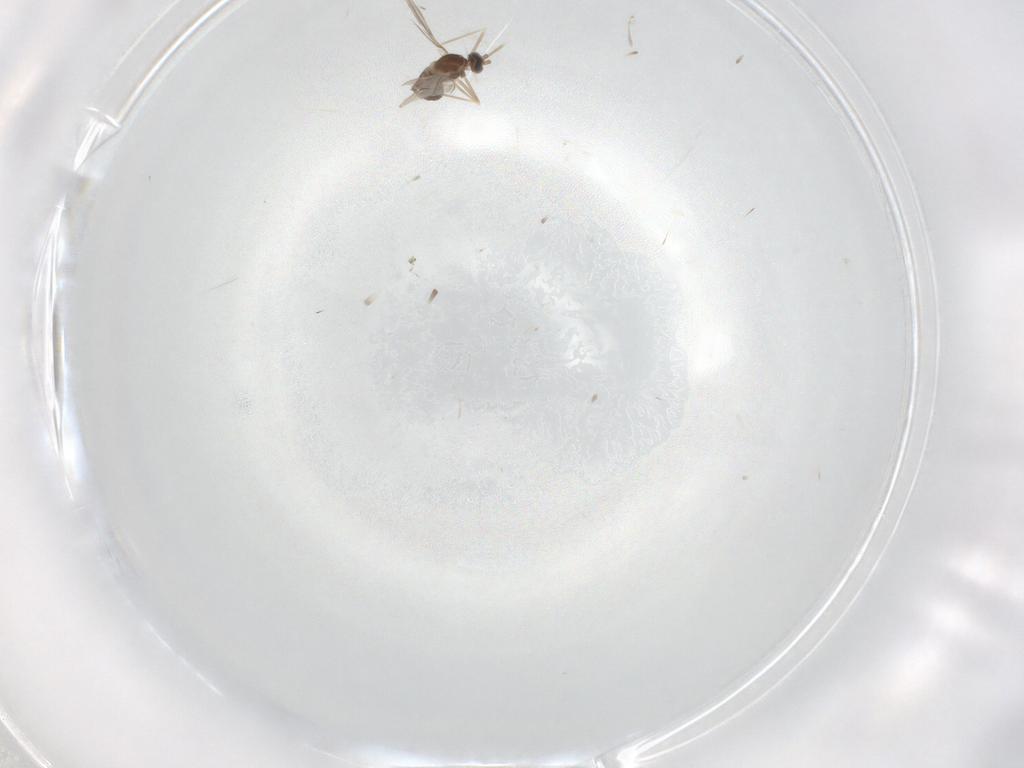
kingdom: Animalia
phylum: Arthropoda
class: Insecta
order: Diptera
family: Cecidomyiidae
